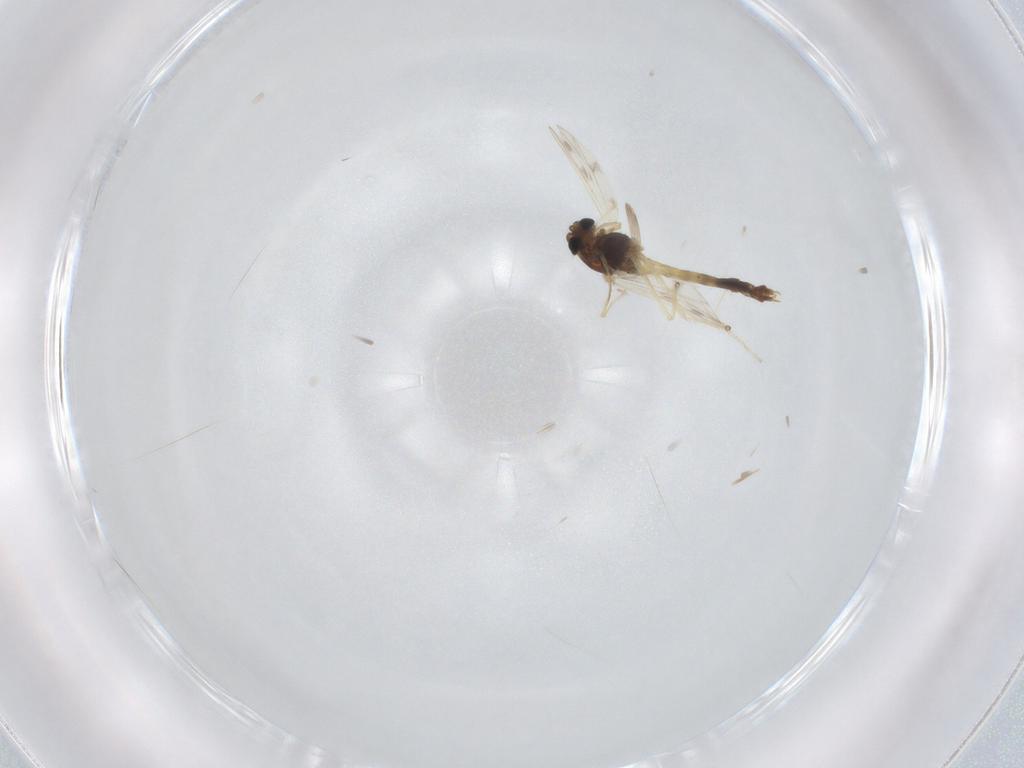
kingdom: Animalia
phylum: Arthropoda
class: Insecta
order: Diptera
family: Chironomidae
